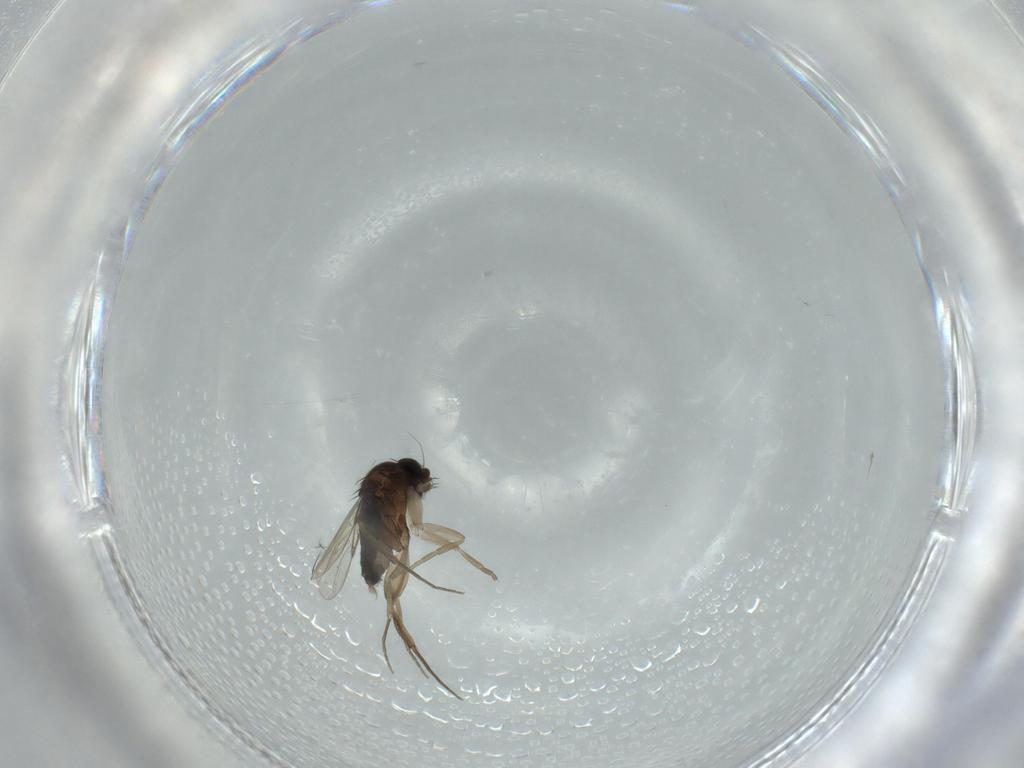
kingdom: Animalia
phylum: Arthropoda
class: Insecta
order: Diptera
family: Phoridae
